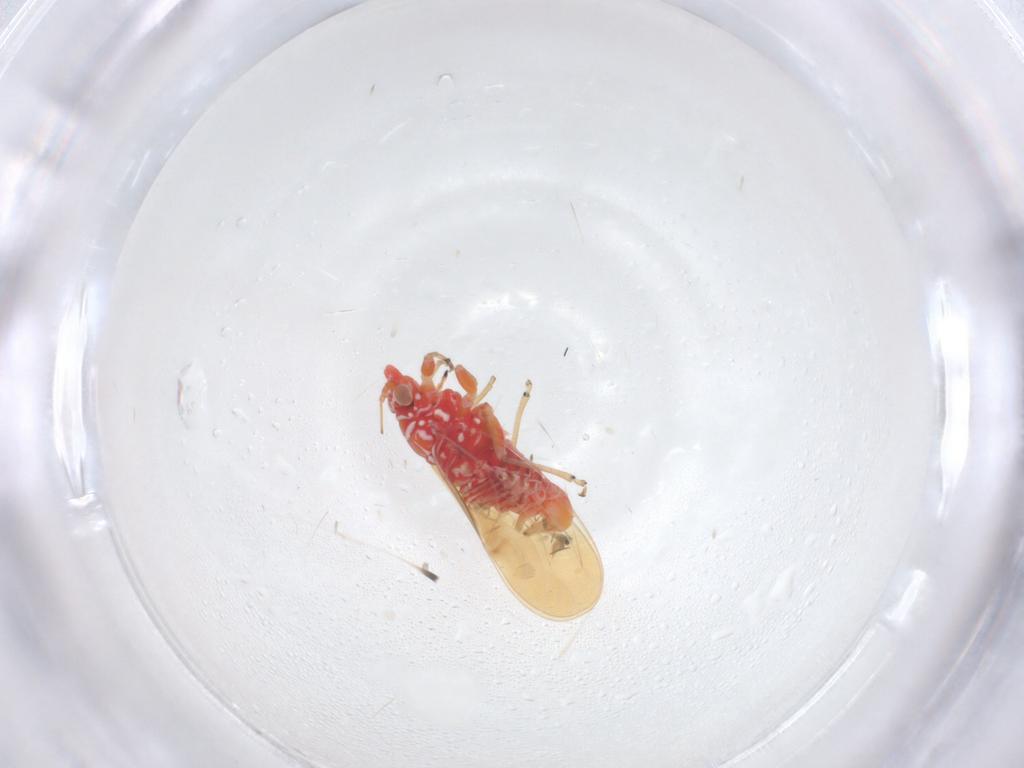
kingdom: Animalia
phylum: Arthropoda
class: Insecta
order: Hemiptera
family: Psyllidae
